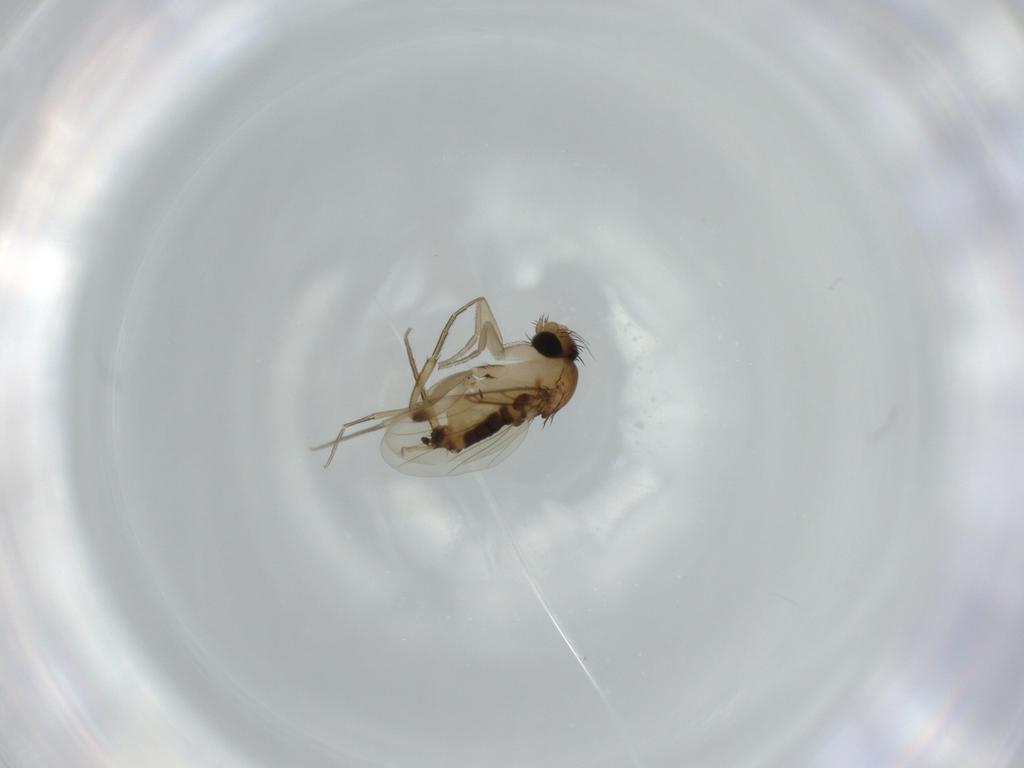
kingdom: Animalia
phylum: Arthropoda
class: Insecta
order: Diptera
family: Phoridae
